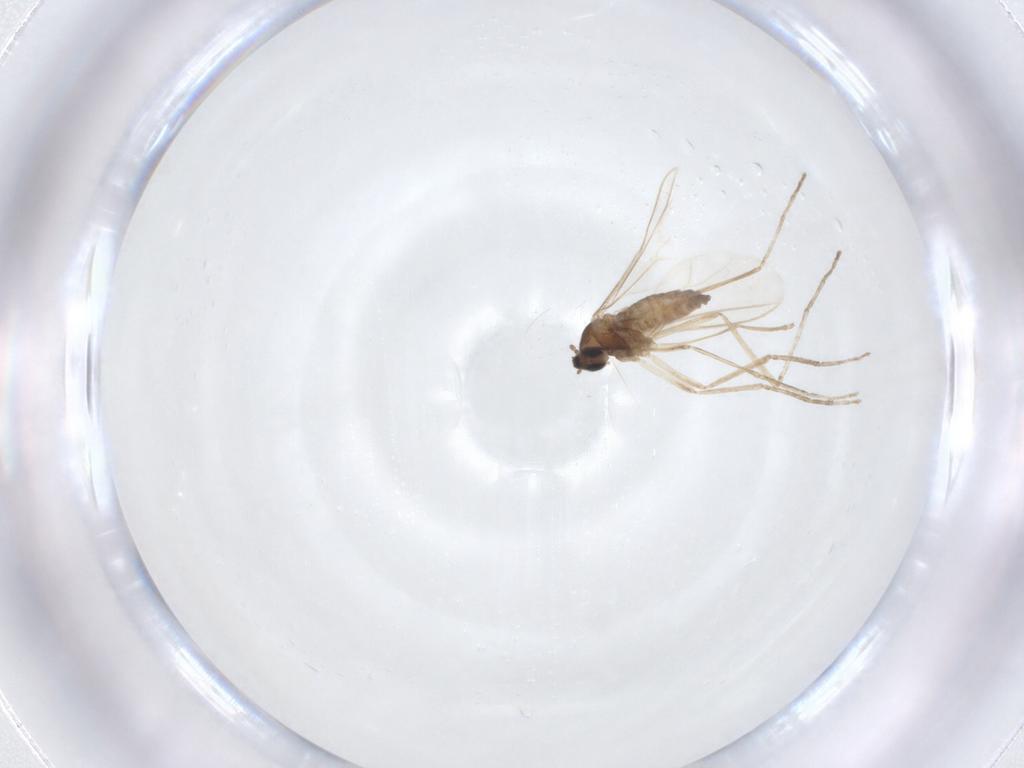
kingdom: Animalia
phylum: Arthropoda
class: Insecta
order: Diptera
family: Cecidomyiidae
